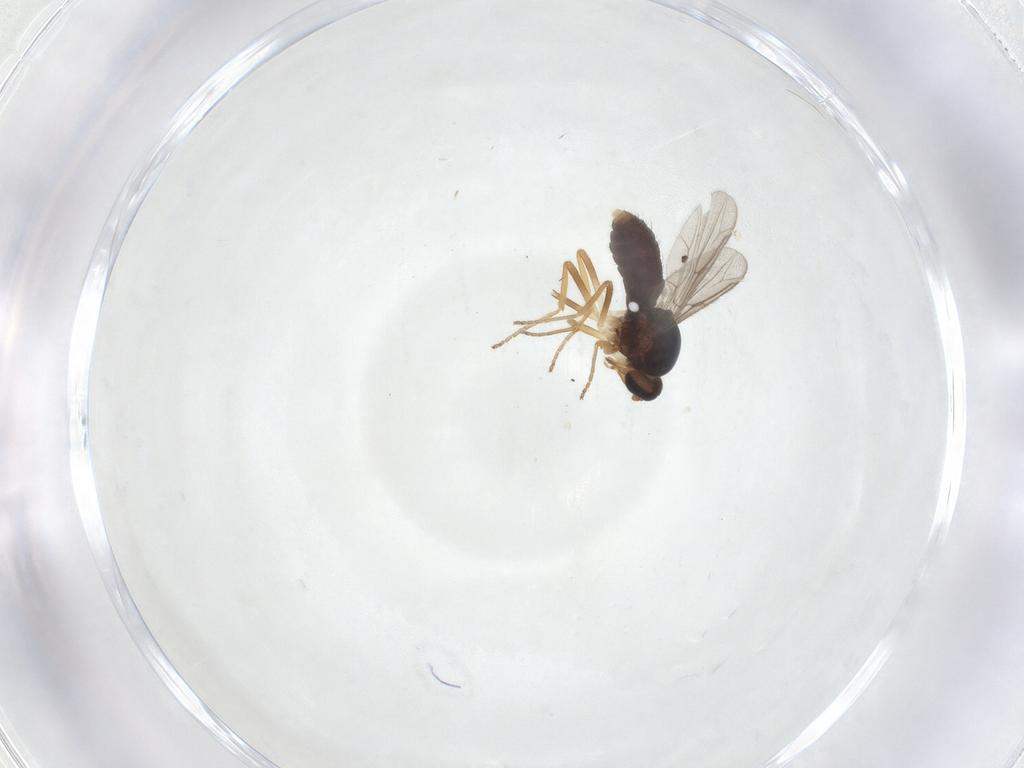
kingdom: Animalia
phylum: Arthropoda
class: Insecta
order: Diptera
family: Ceratopogonidae
